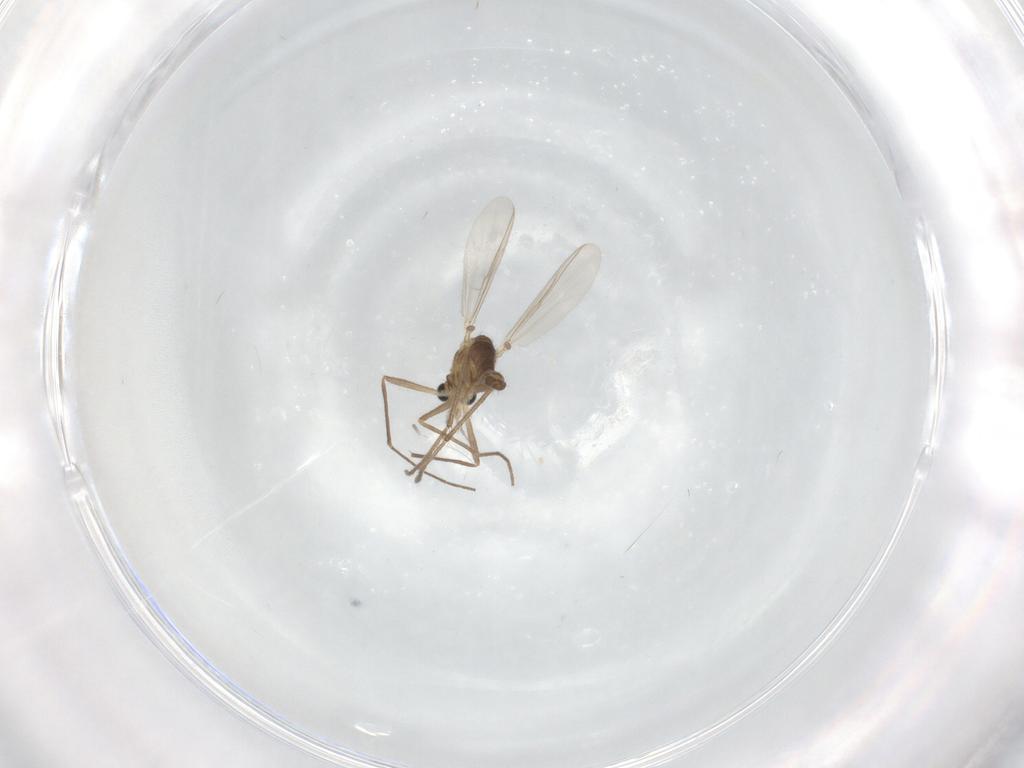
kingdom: Animalia
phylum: Arthropoda
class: Insecta
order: Diptera
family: Chironomidae
